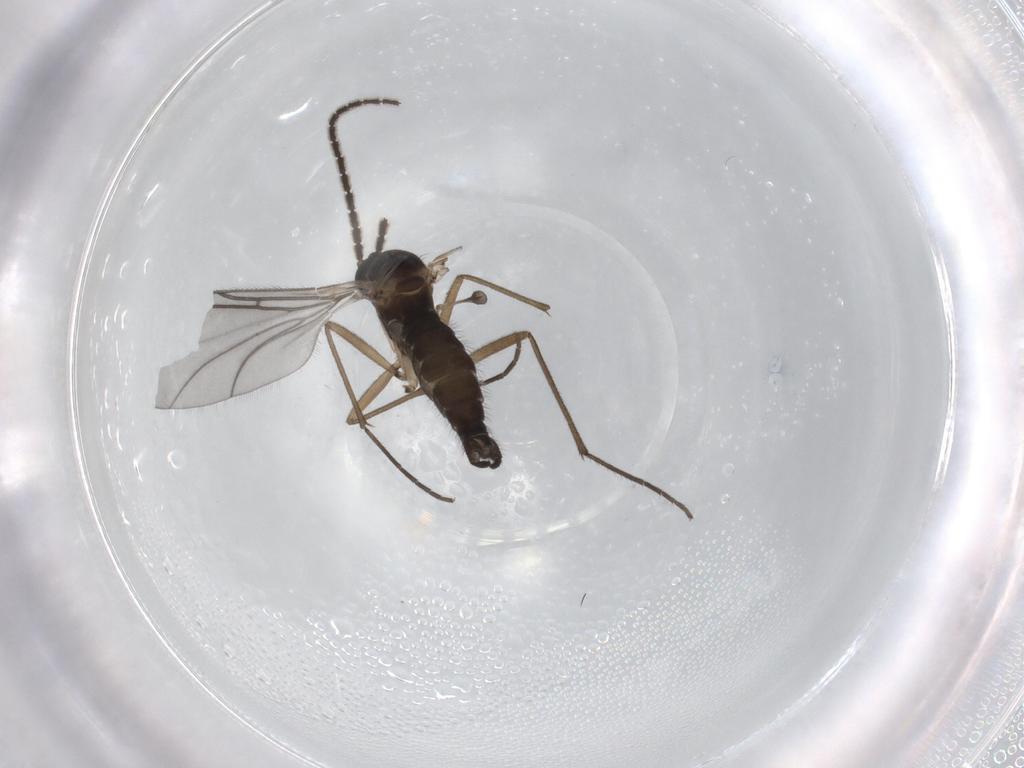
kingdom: Animalia
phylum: Arthropoda
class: Insecta
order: Diptera
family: Sciaridae
